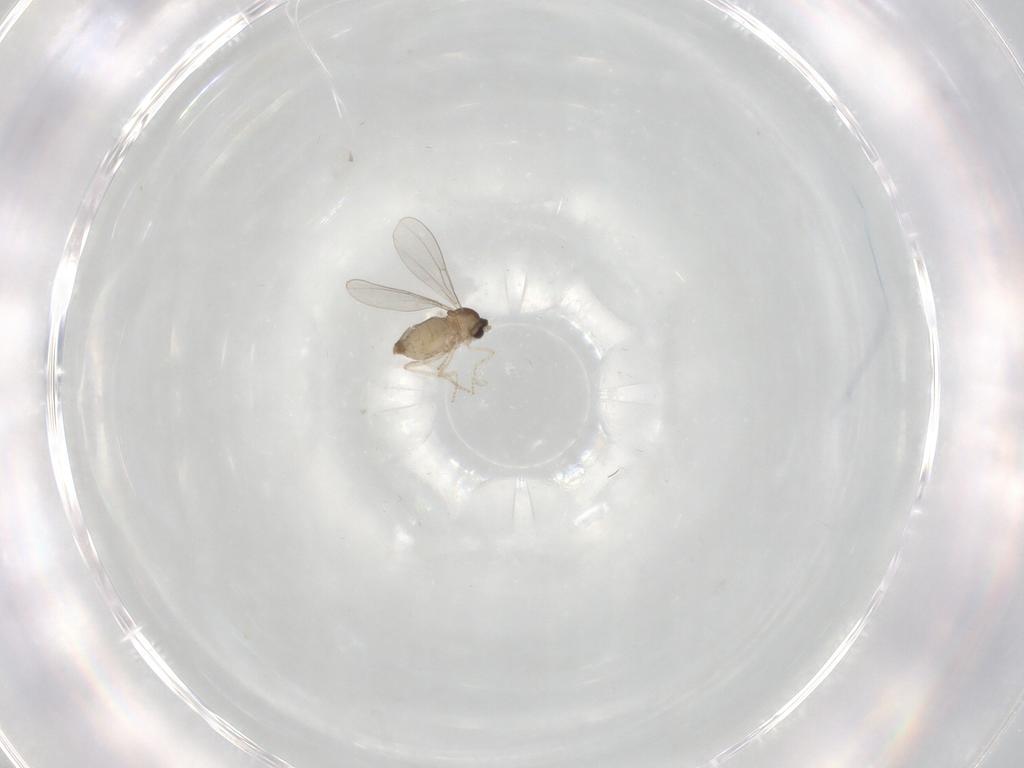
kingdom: Animalia
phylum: Arthropoda
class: Insecta
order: Diptera
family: Cecidomyiidae
